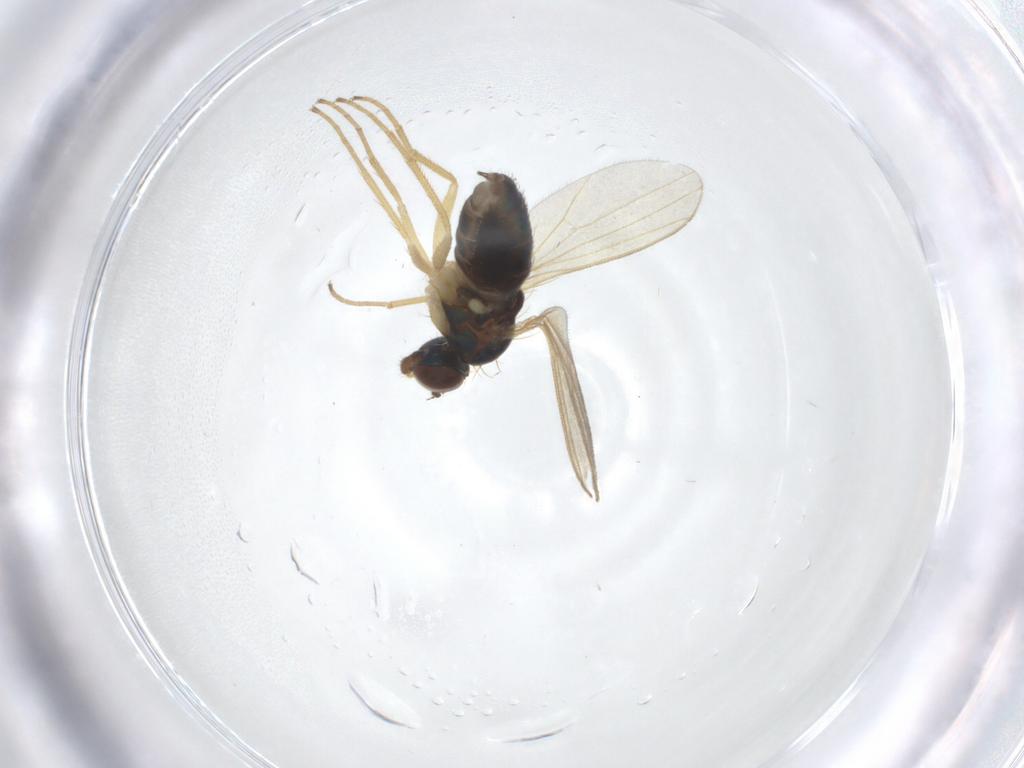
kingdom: Animalia
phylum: Arthropoda
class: Insecta
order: Diptera
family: Dolichopodidae
